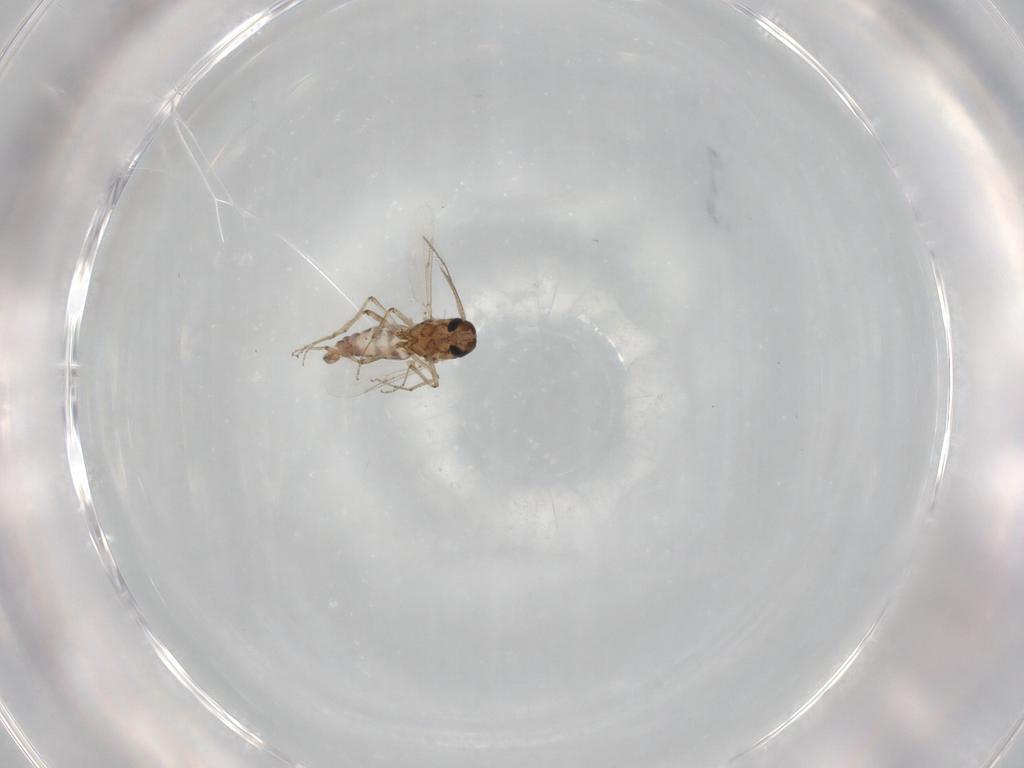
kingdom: Animalia
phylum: Arthropoda
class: Insecta
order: Diptera
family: Ceratopogonidae
